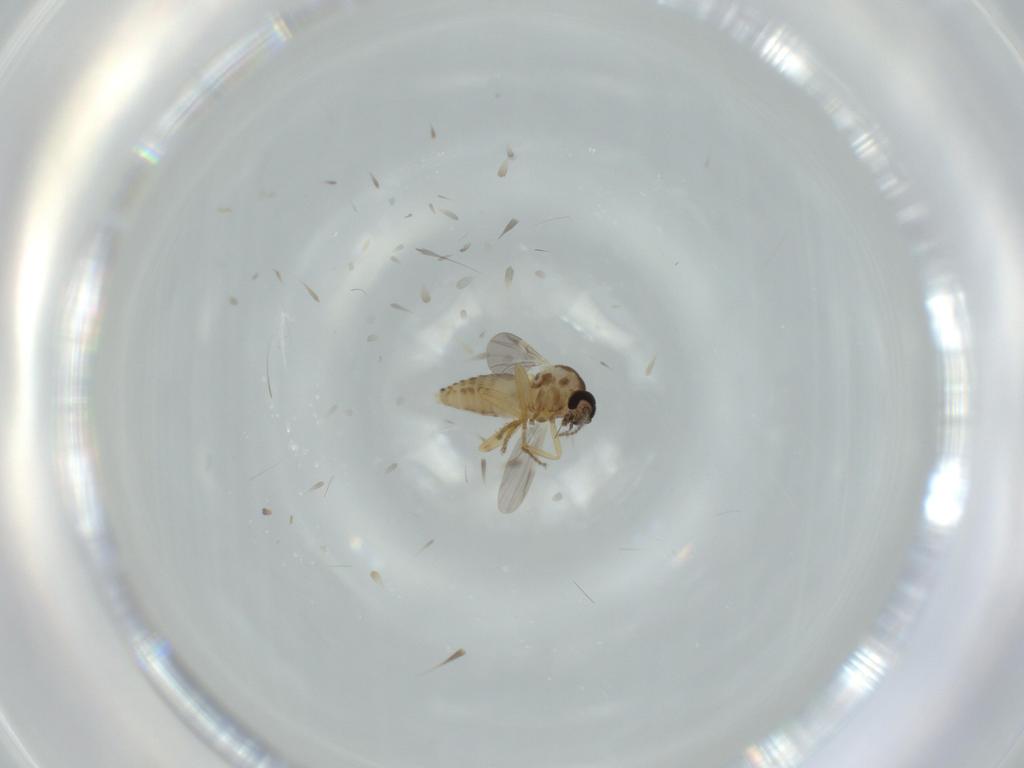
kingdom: Animalia
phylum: Arthropoda
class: Insecta
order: Diptera
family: Ceratopogonidae
